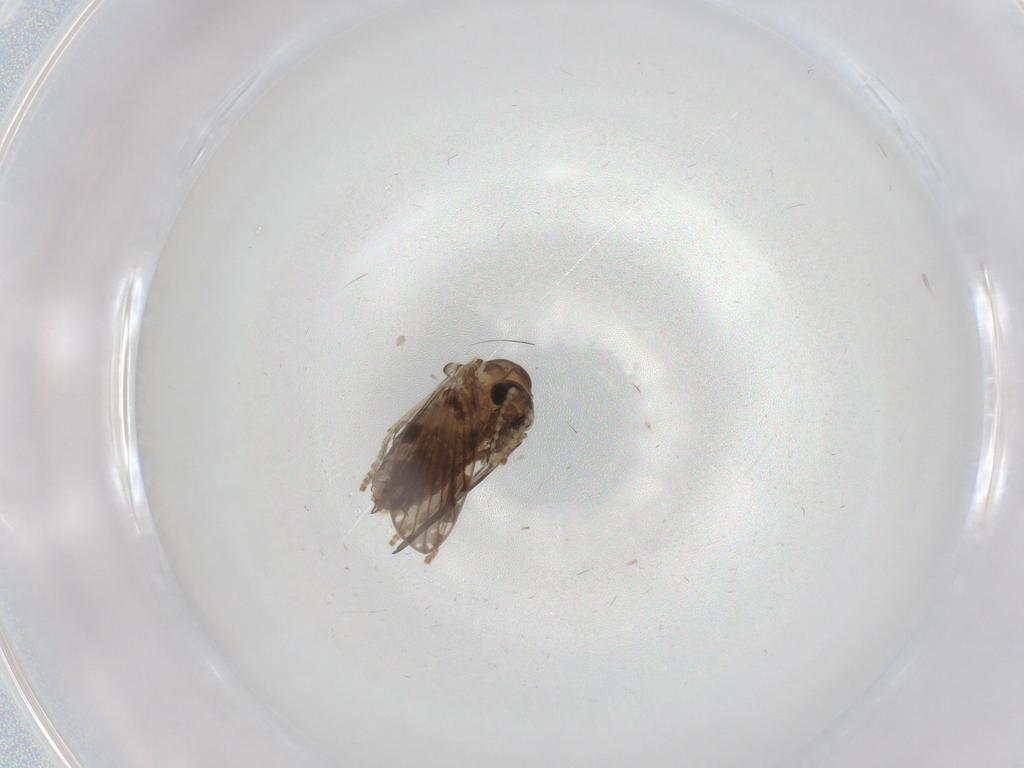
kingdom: Animalia
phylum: Arthropoda
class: Insecta
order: Diptera
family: Psychodidae
